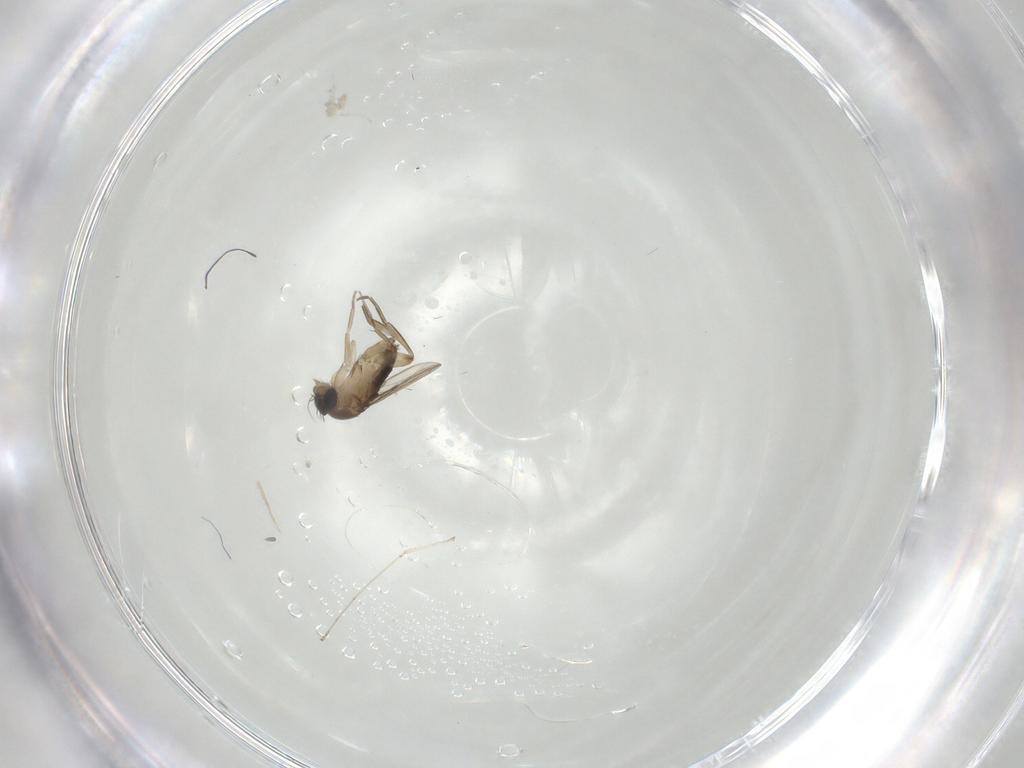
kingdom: Animalia
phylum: Arthropoda
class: Insecta
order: Diptera
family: Phoridae
